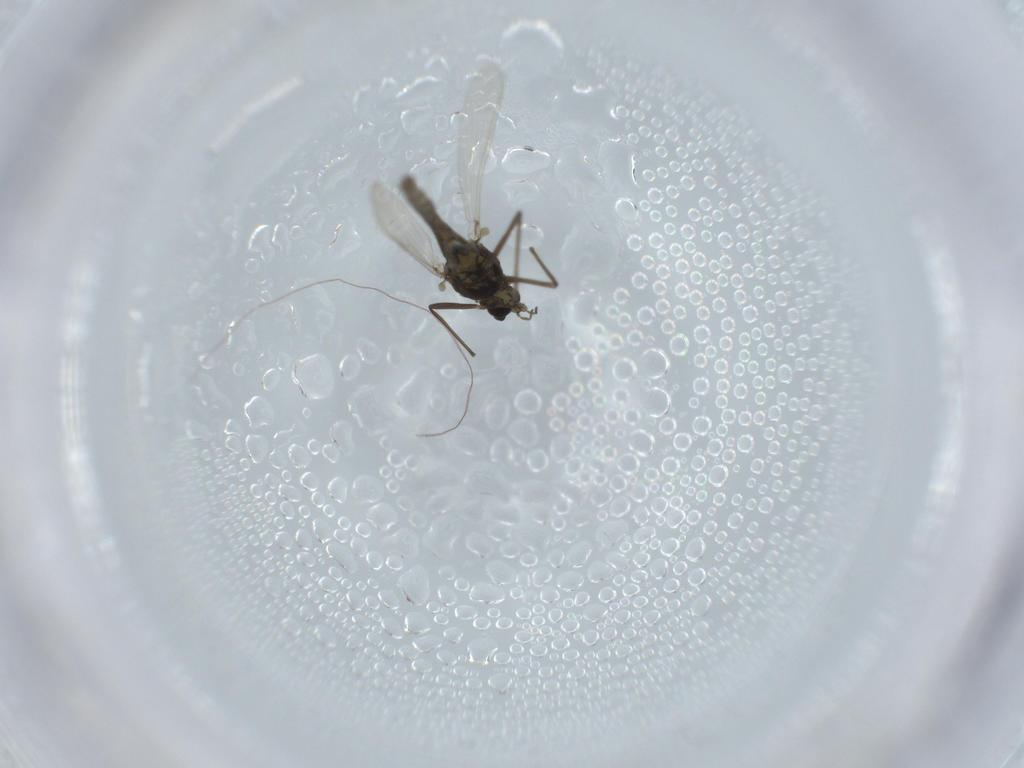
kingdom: Animalia
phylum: Arthropoda
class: Insecta
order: Diptera
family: Chironomidae
